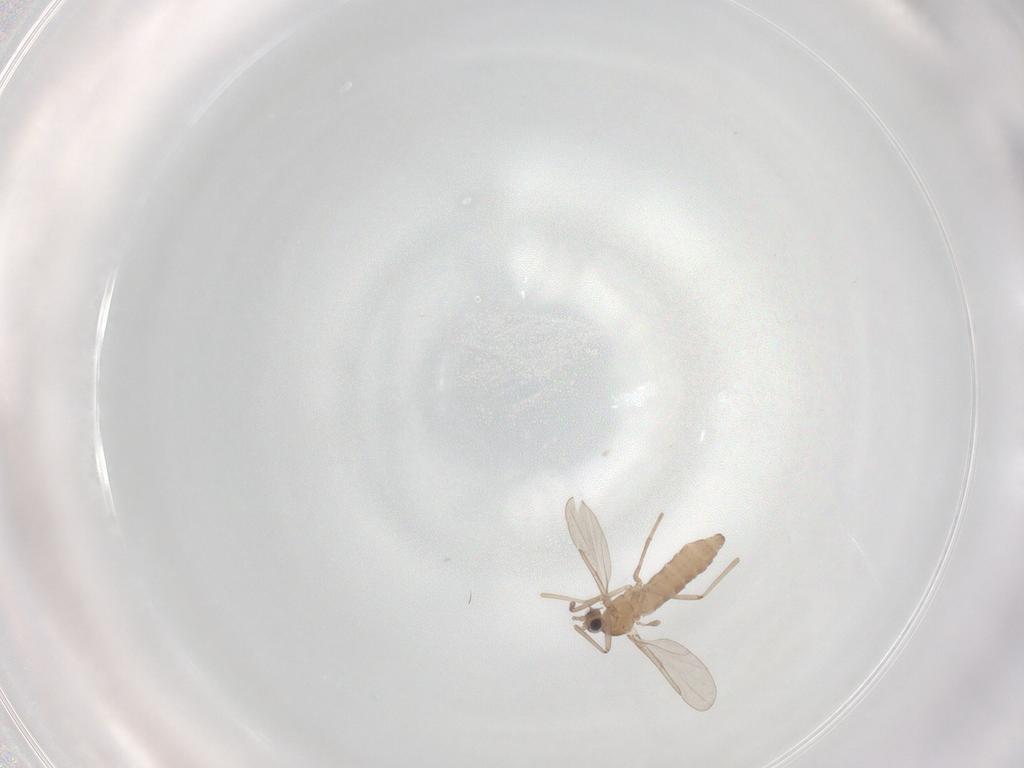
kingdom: Animalia
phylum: Arthropoda
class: Insecta
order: Diptera
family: Cecidomyiidae
